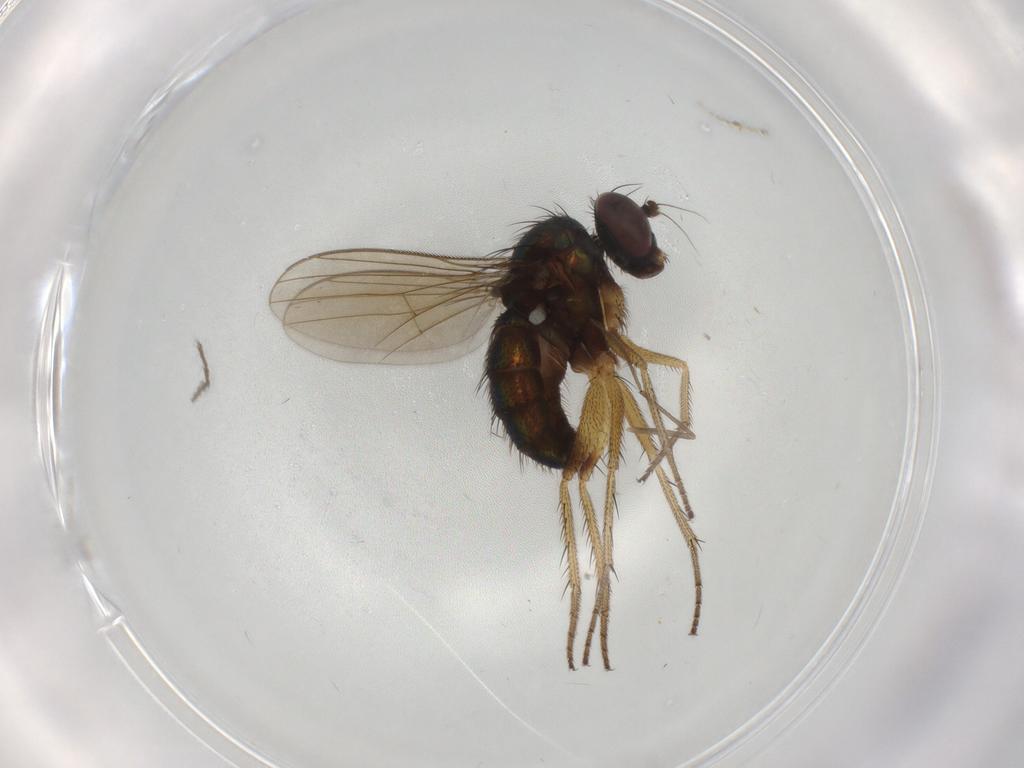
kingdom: Animalia
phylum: Arthropoda
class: Insecta
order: Diptera
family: Dolichopodidae
